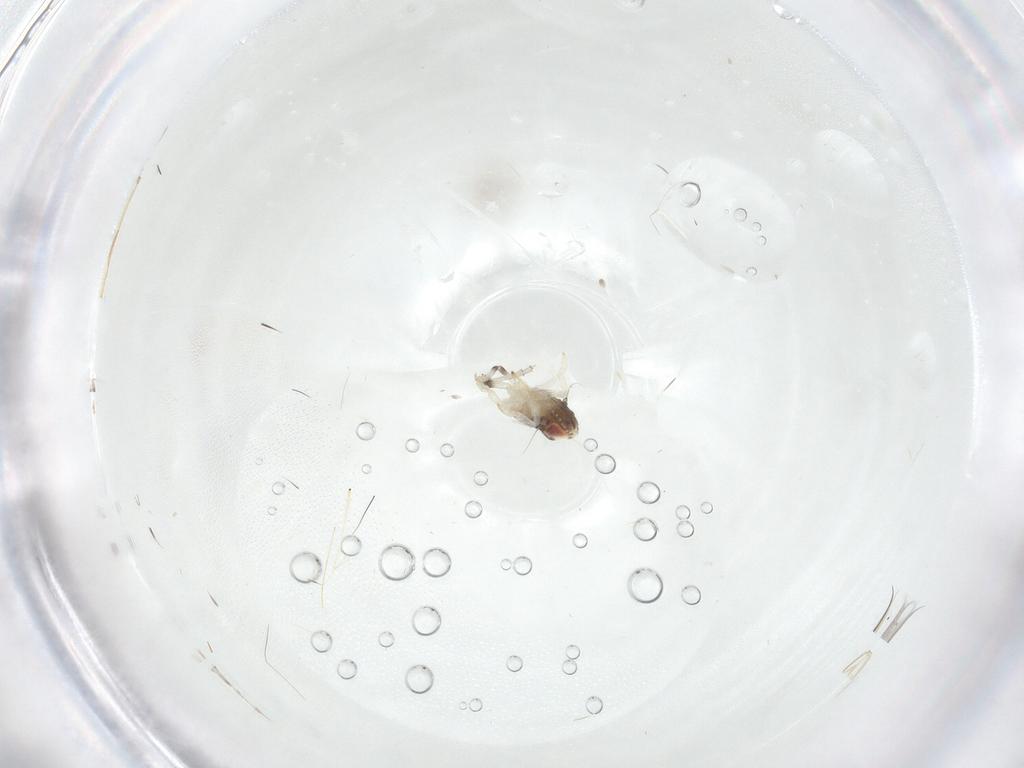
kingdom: Animalia
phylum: Arthropoda
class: Insecta
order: Hemiptera
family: Nogodinidae
